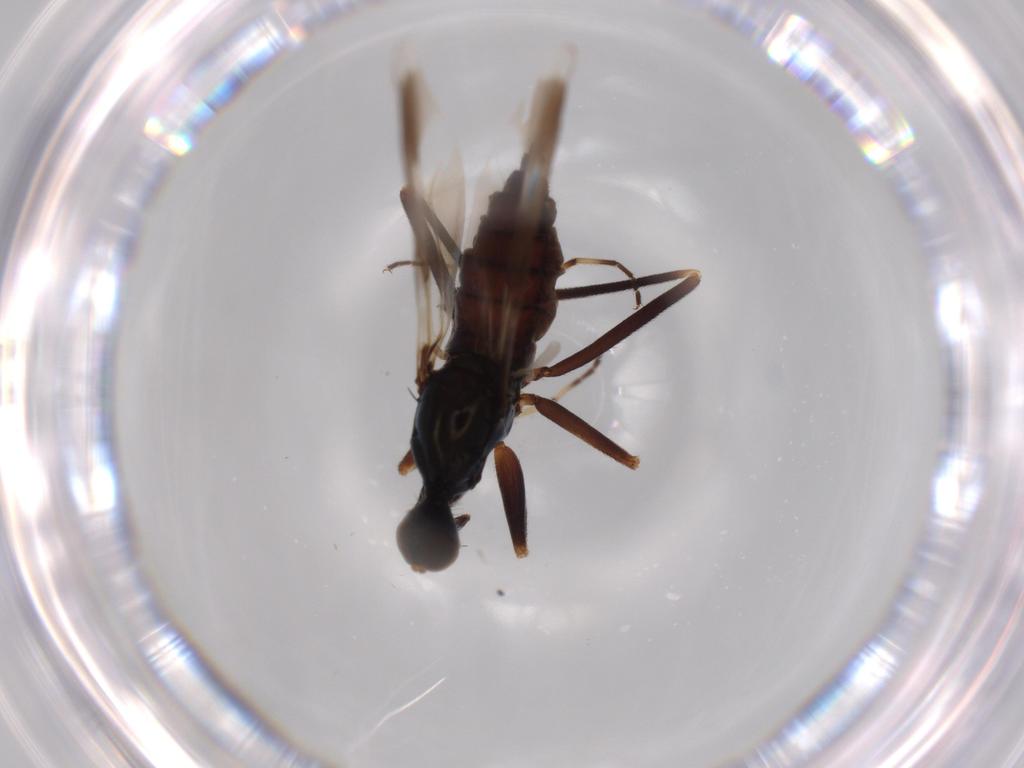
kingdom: Animalia
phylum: Arthropoda
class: Insecta
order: Diptera
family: Hybotidae
